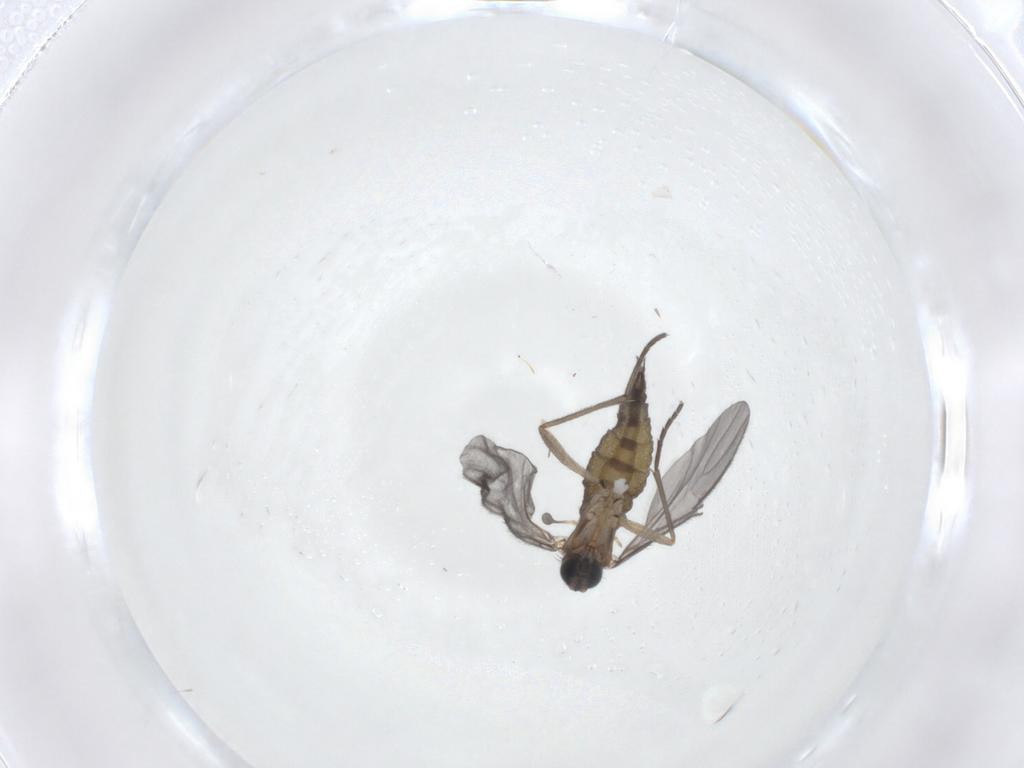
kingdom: Animalia
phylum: Arthropoda
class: Insecta
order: Diptera
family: Sciaridae
